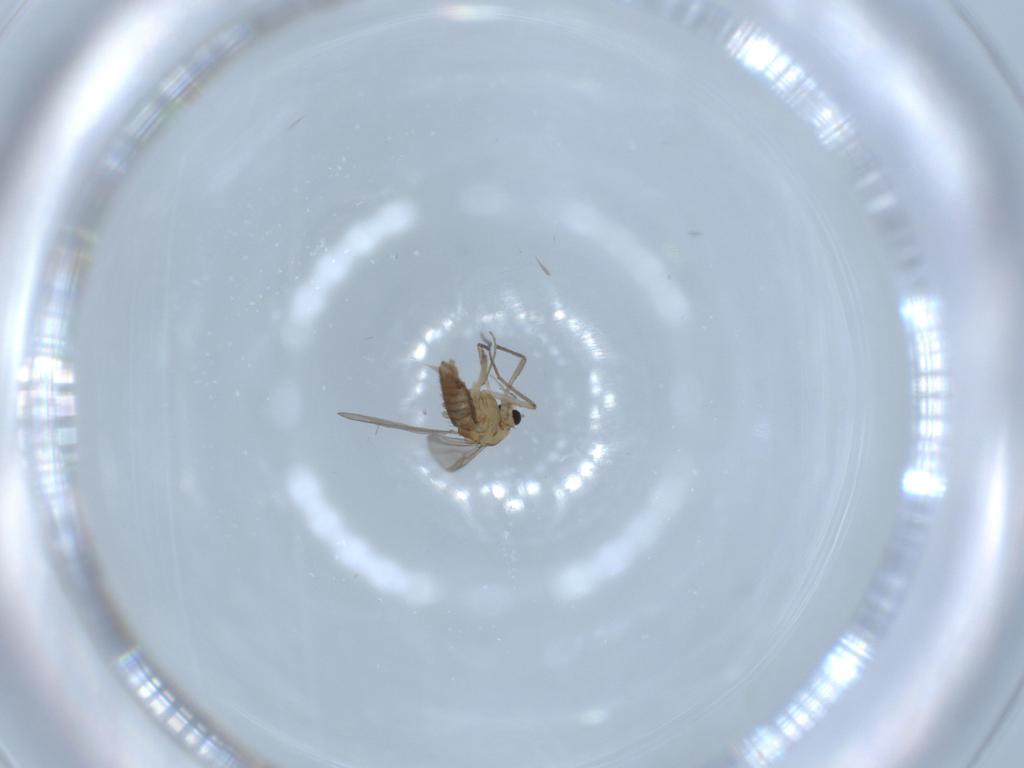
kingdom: Animalia
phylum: Arthropoda
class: Insecta
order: Diptera
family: Chironomidae
